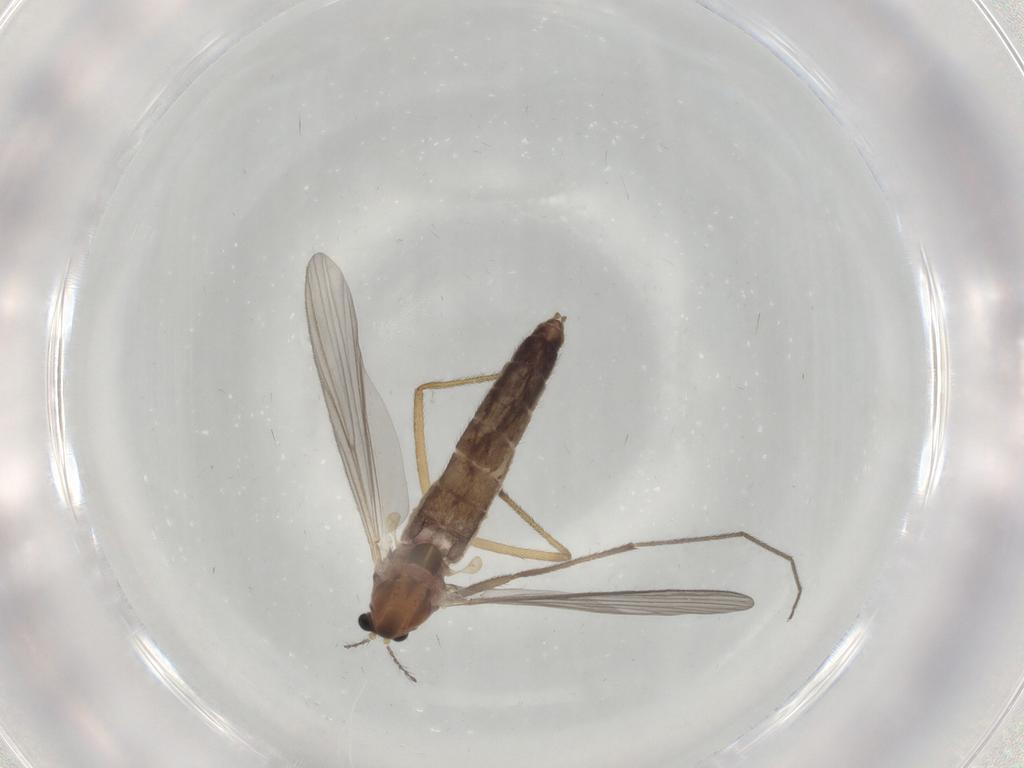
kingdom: Animalia
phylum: Arthropoda
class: Insecta
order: Diptera
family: Chironomidae
